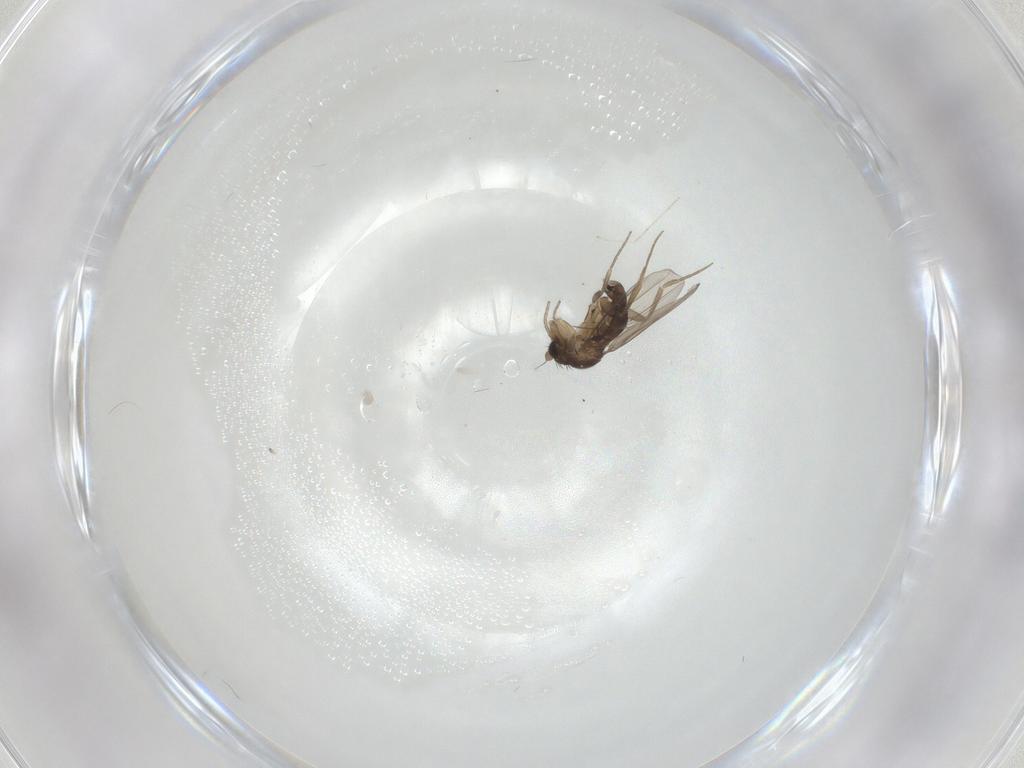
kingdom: Animalia
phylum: Arthropoda
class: Insecta
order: Diptera
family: Phoridae
